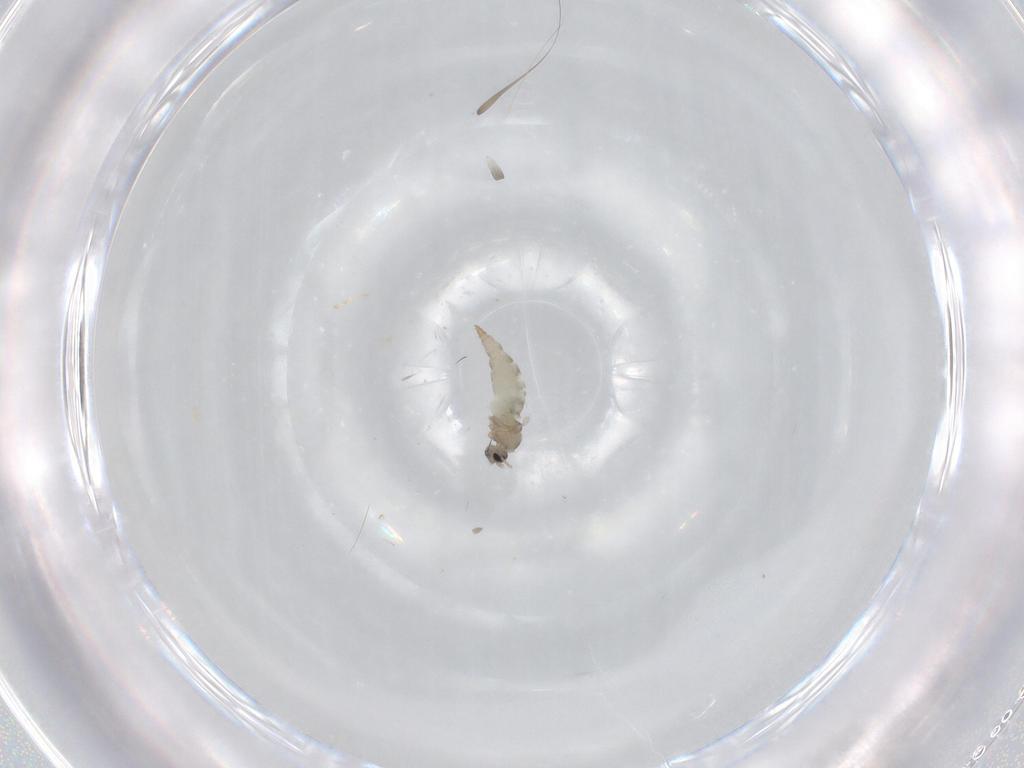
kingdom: Animalia
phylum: Arthropoda
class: Insecta
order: Diptera
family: Cecidomyiidae
